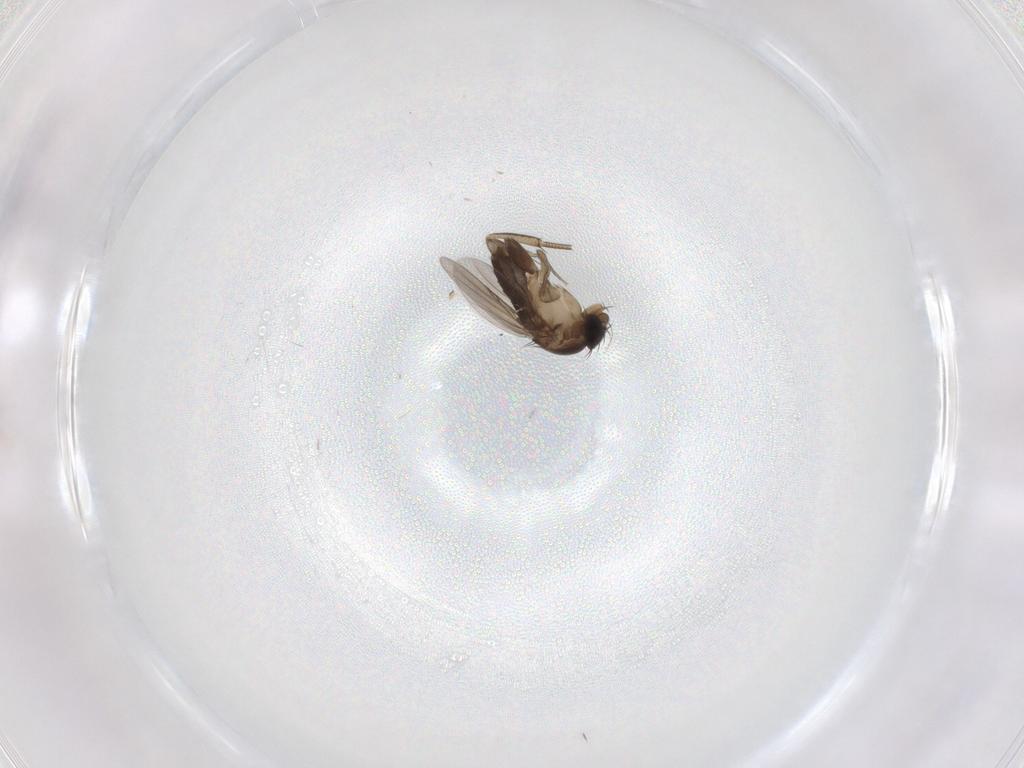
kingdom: Animalia
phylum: Arthropoda
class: Insecta
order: Diptera
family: Phoridae
